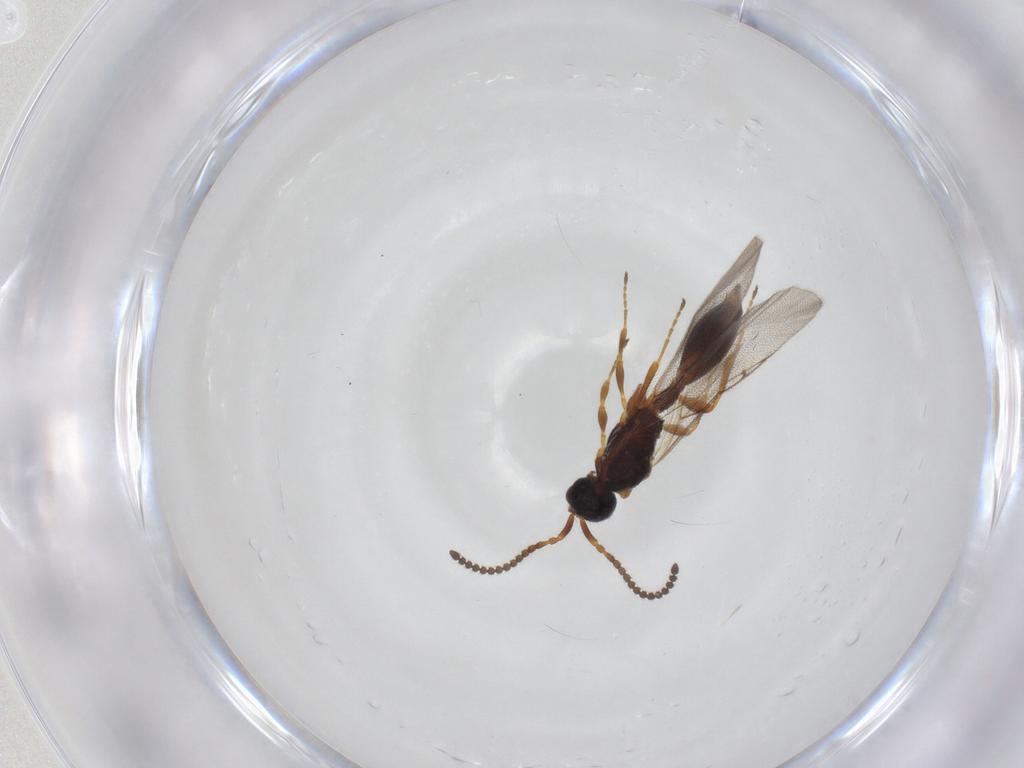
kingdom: Animalia
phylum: Arthropoda
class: Insecta
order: Hymenoptera
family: Diapriidae
